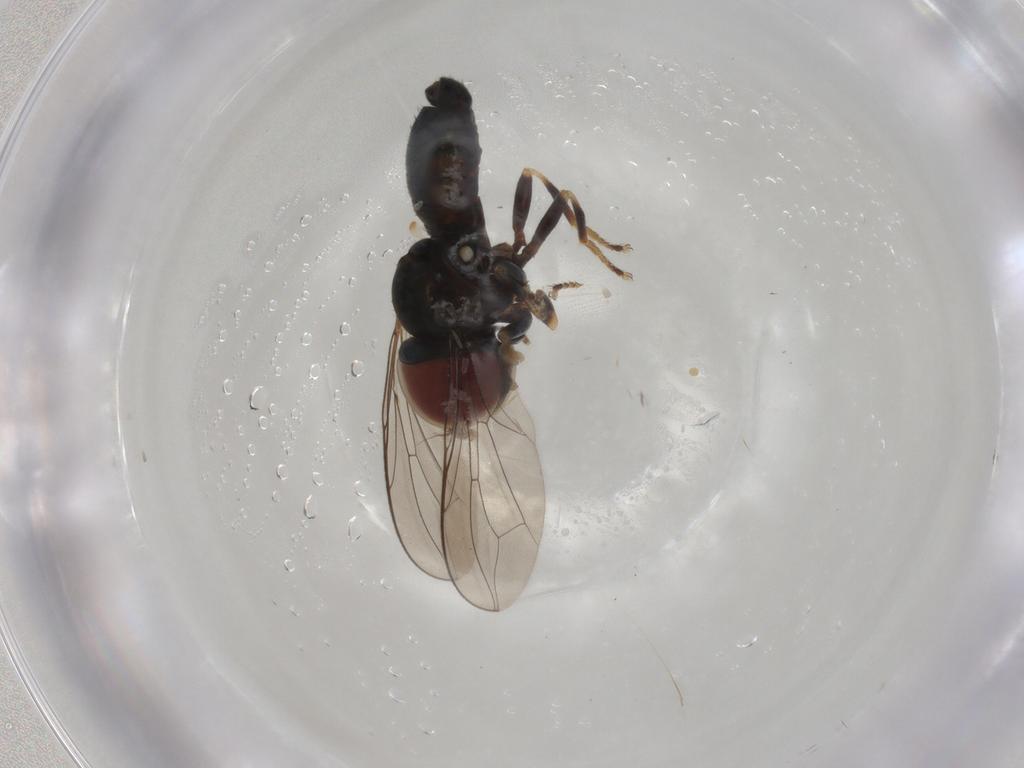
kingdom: Animalia
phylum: Arthropoda
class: Insecta
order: Diptera
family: Pipunculidae
